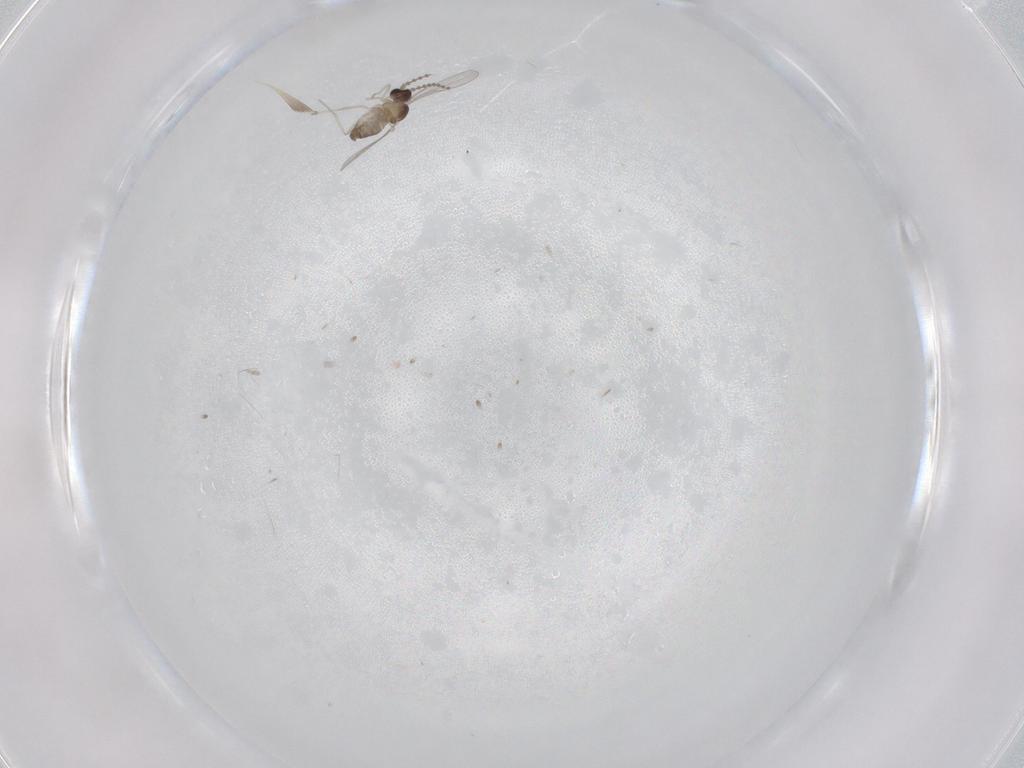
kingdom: Animalia
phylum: Arthropoda
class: Insecta
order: Diptera
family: Cecidomyiidae
